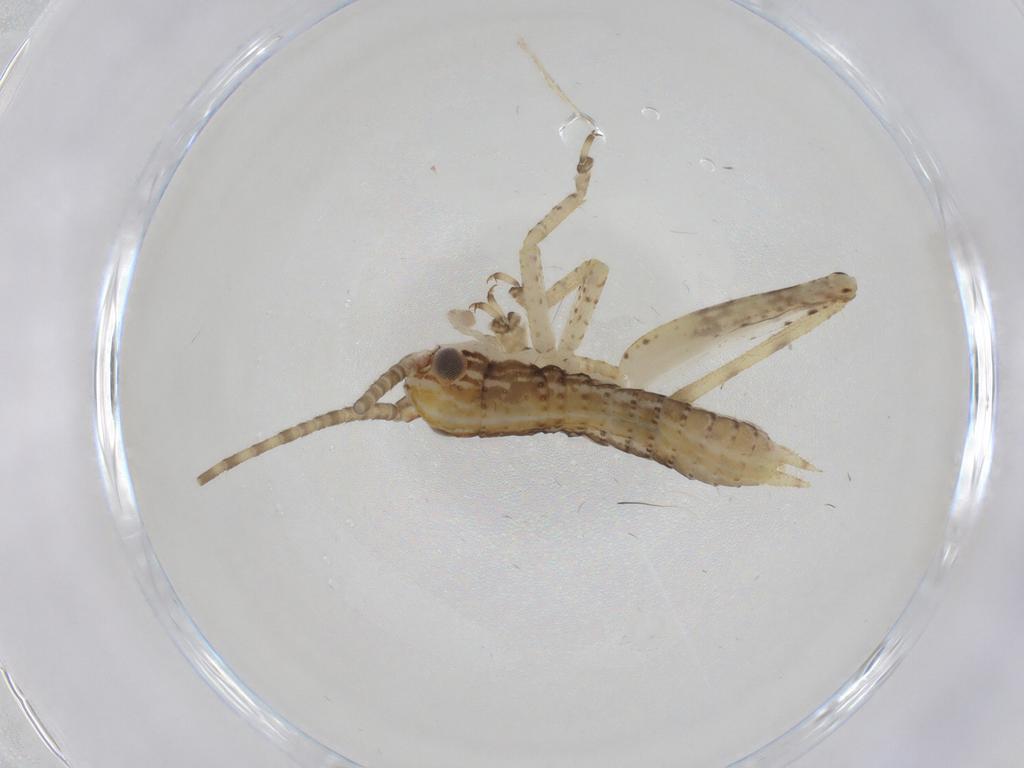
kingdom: Animalia
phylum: Arthropoda
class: Insecta
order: Orthoptera
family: Gryllidae
